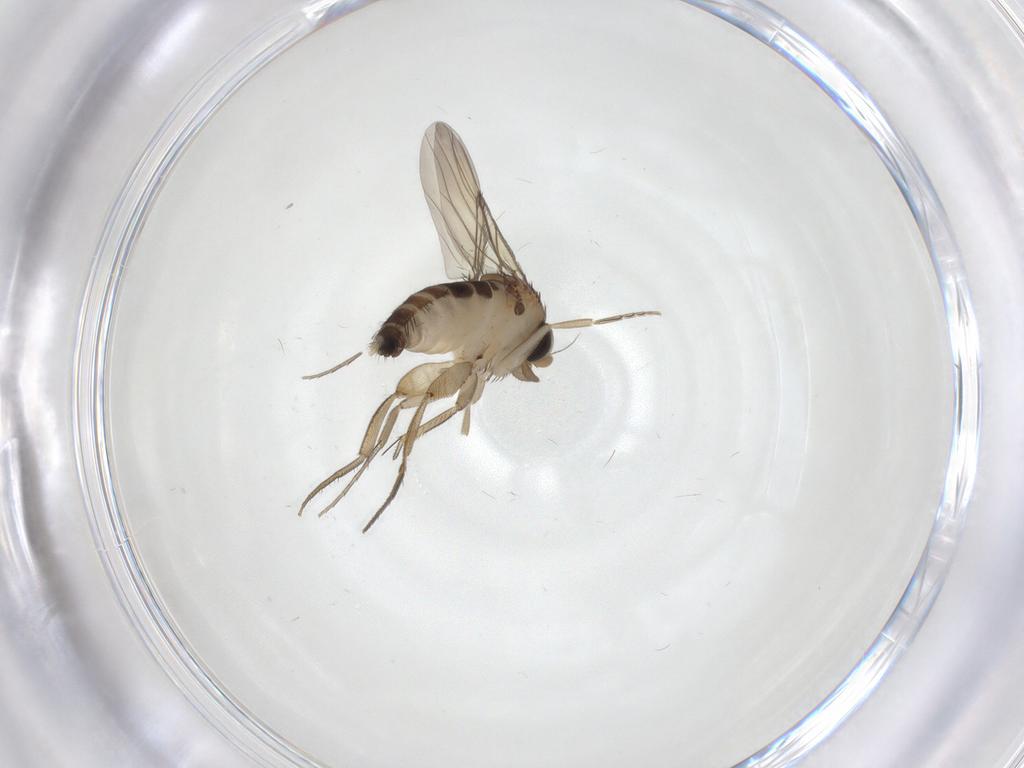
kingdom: Animalia
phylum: Arthropoda
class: Insecta
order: Diptera
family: Phoridae
